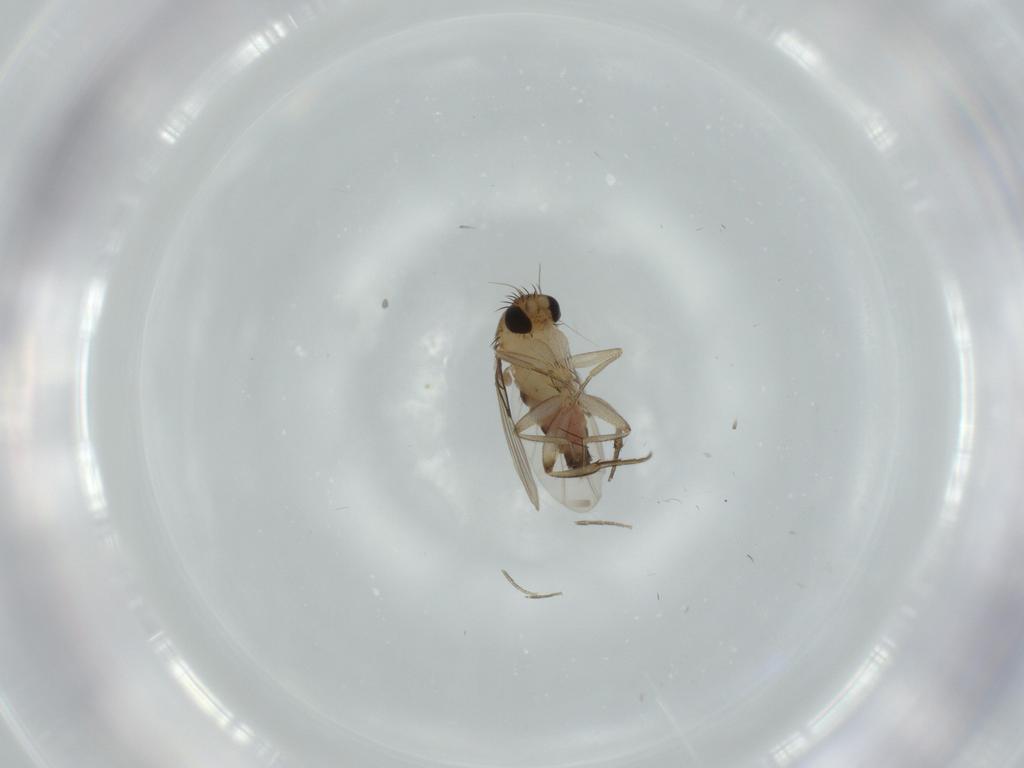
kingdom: Animalia
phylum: Arthropoda
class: Insecta
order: Diptera
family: Phoridae
